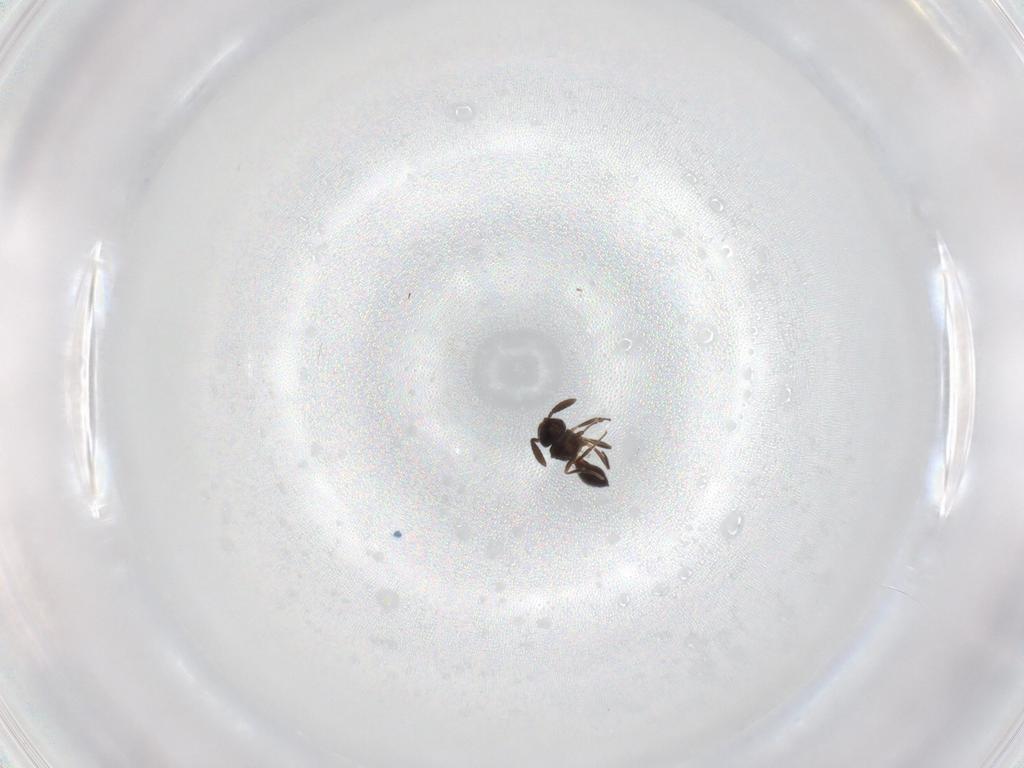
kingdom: Animalia
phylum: Arthropoda
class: Insecta
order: Hymenoptera
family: Scelionidae
